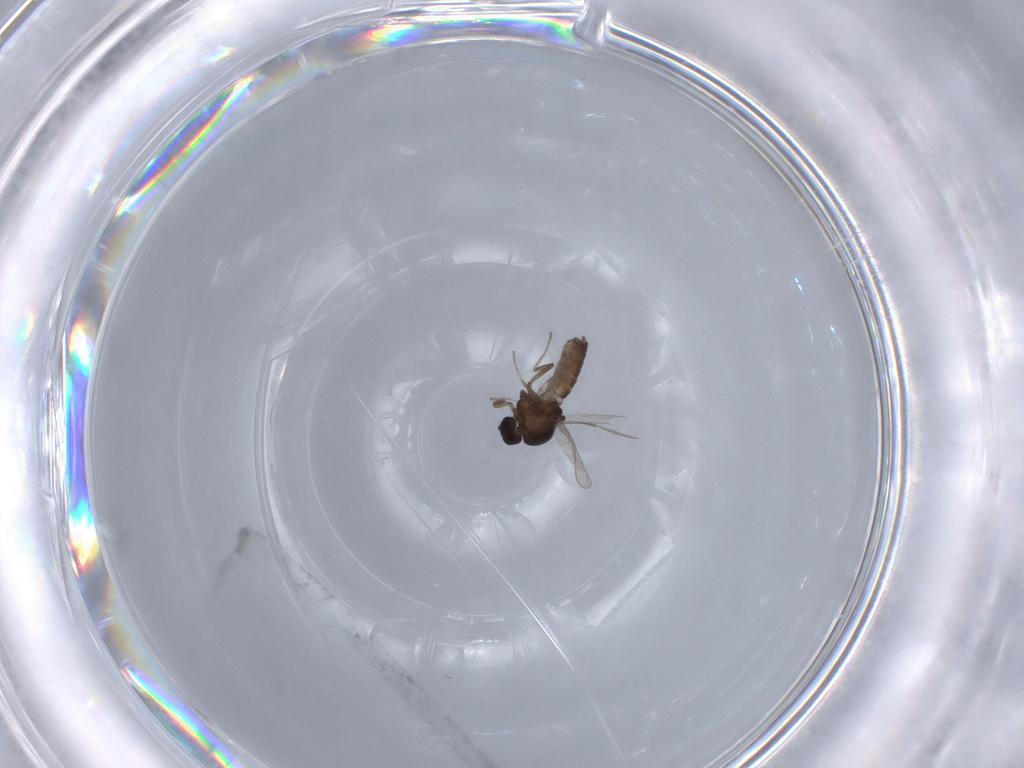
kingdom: Animalia
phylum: Arthropoda
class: Insecta
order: Diptera
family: Ceratopogonidae
